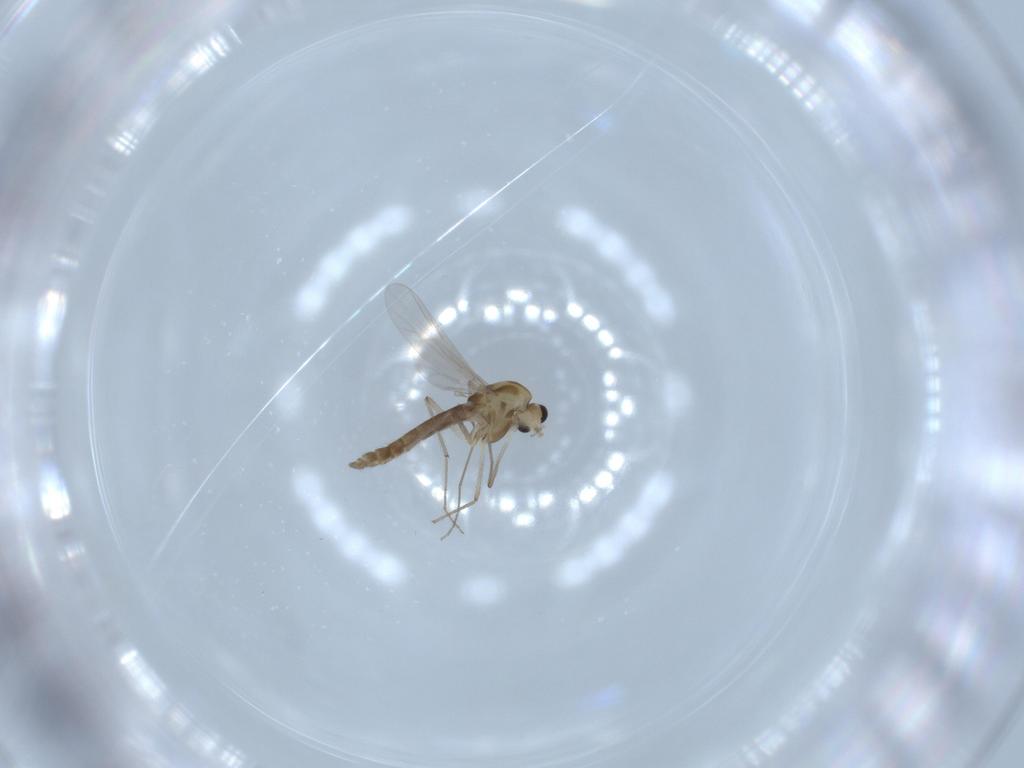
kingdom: Animalia
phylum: Arthropoda
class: Insecta
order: Diptera
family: Chironomidae
